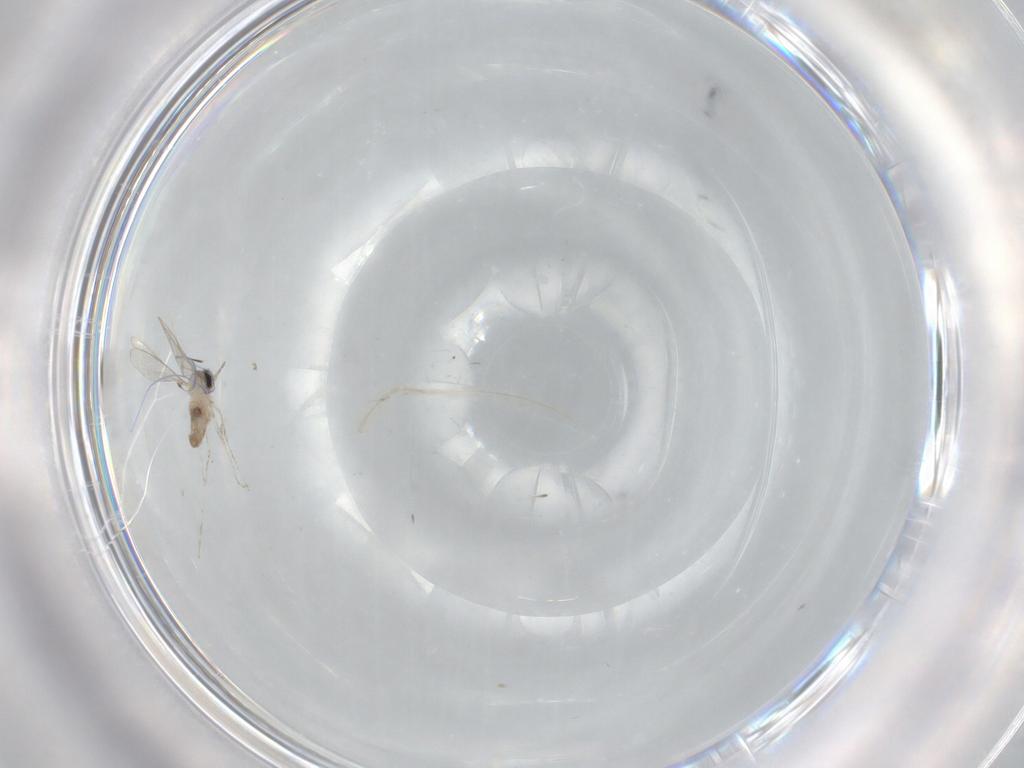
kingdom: Animalia
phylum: Arthropoda
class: Insecta
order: Diptera
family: Cecidomyiidae
